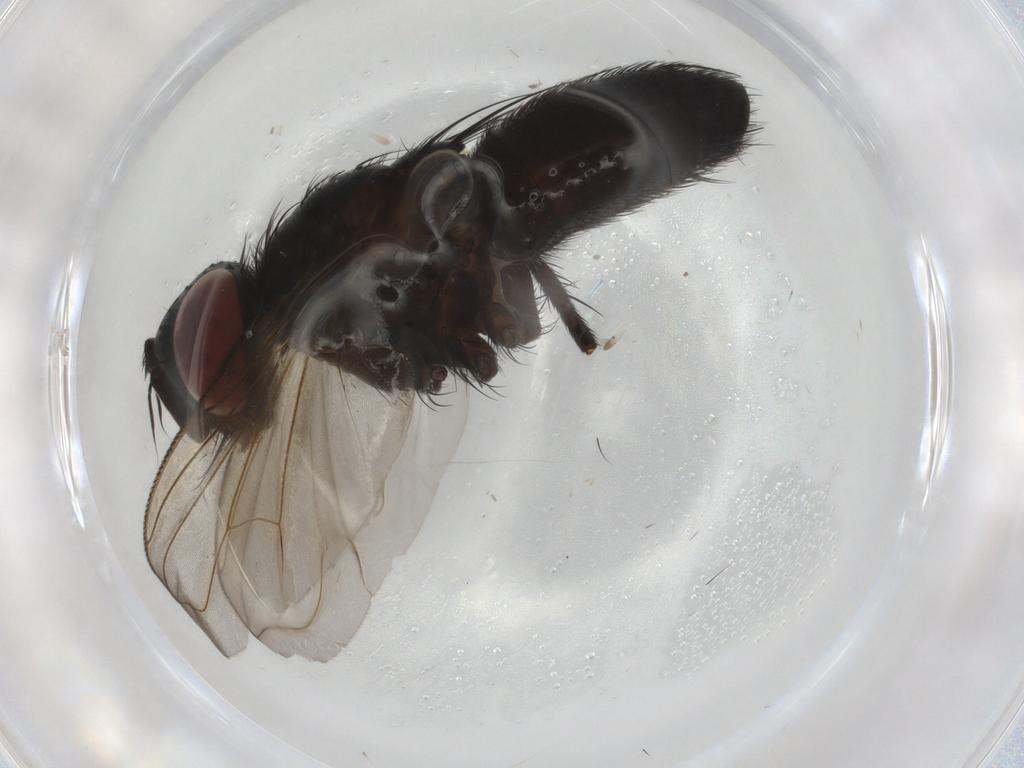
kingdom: Animalia
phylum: Arthropoda
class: Insecta
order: Diptera
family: Tachinidae
